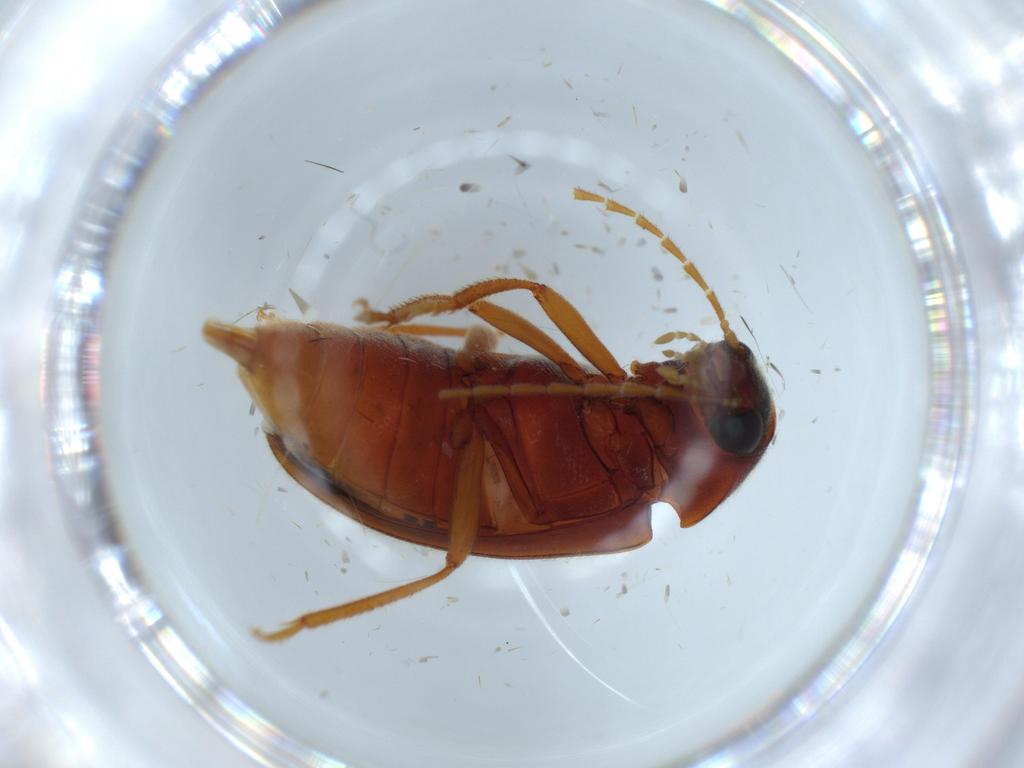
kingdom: Animalia
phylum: Arthropoda
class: Insecta
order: Coleoptera
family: Ptilodactylidae
